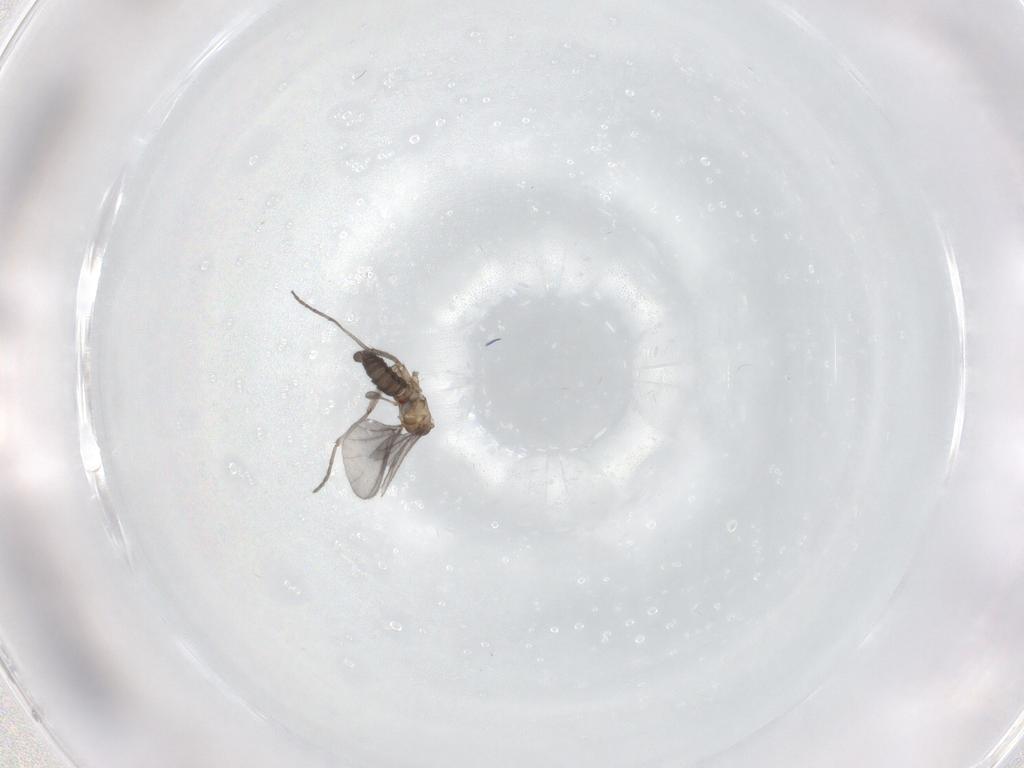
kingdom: Animalia
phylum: Arthropoda
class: Insecta
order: Diptera
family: Sciaridae
